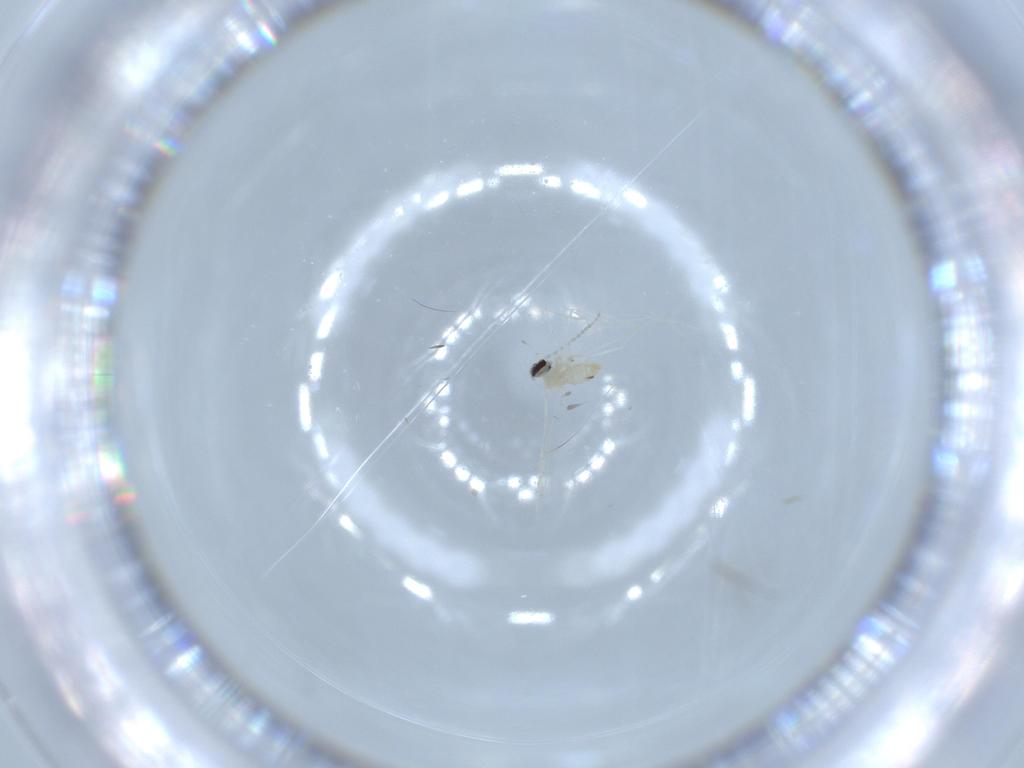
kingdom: Animalia
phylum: Arthropoda
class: Insecta
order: Diptera
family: Cecidomyiidae
